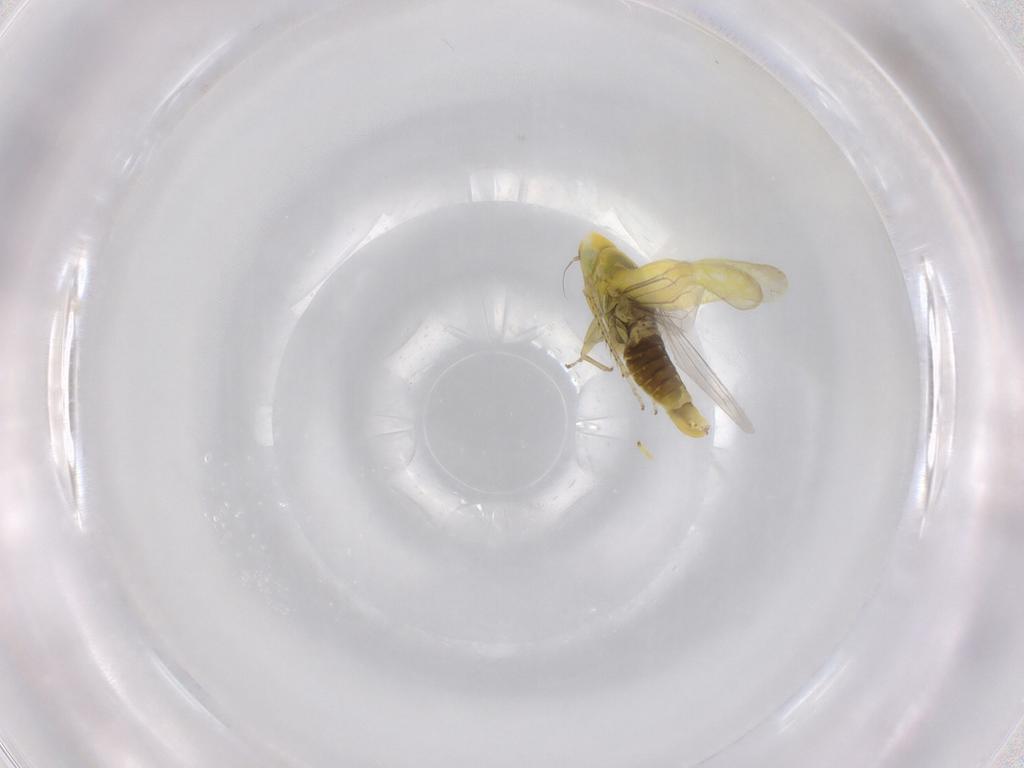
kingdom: Animalia
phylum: Arthropoda
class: Insecta
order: Hemiptera
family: Cicadellidae
